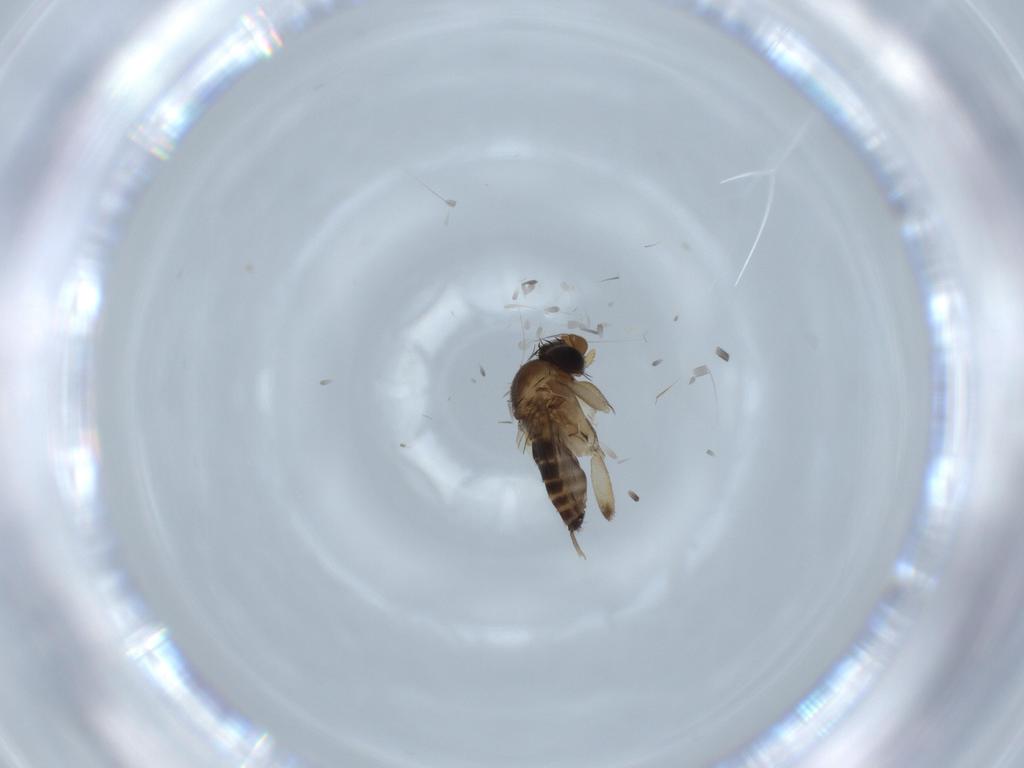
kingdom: Animalia
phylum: Arthropoda
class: Insecta
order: Diptera
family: Phoridae
